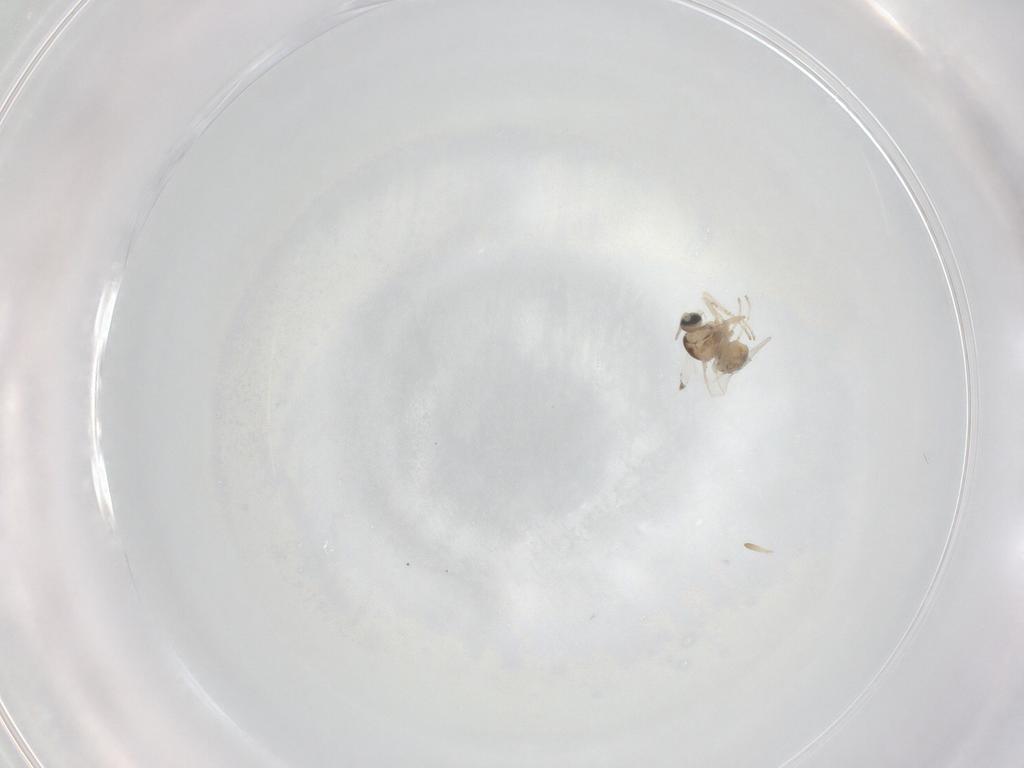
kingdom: Animalia
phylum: Arthropoda
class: Insecta
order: Diptera
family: Cecidomyiidae
